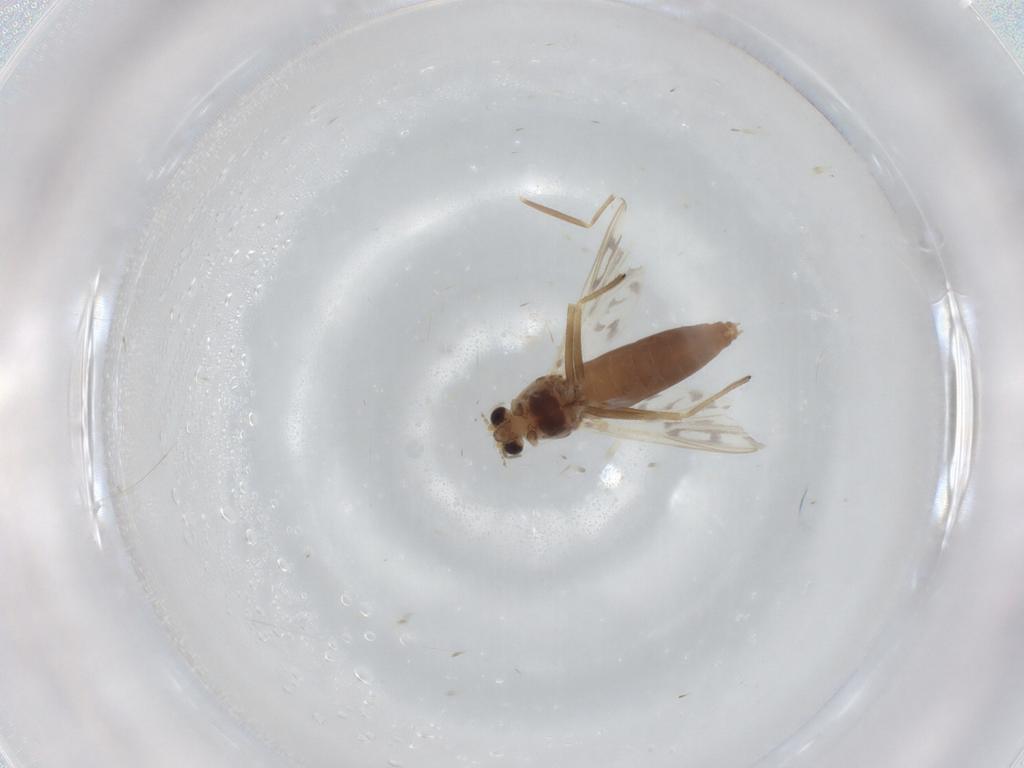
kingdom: Animalia
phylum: Arthropoda
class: Insecta
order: Diptera
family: Chironomidae
